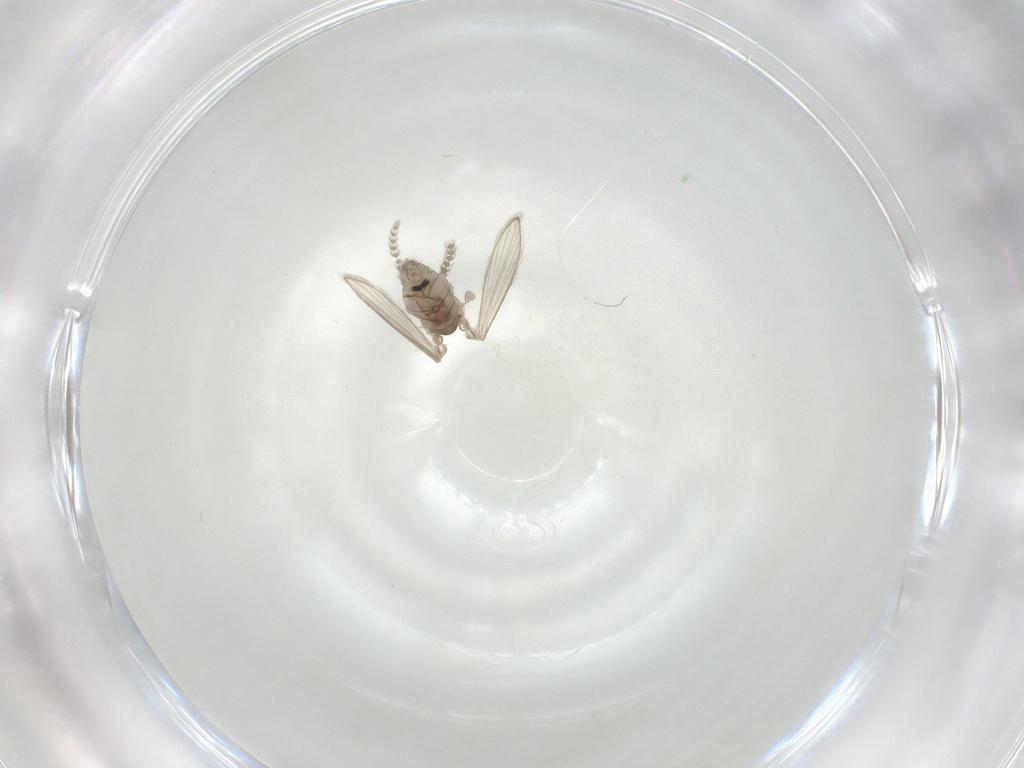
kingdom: Animalia
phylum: Arthropoda
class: Insecta
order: Diptera
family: Psychodidae
